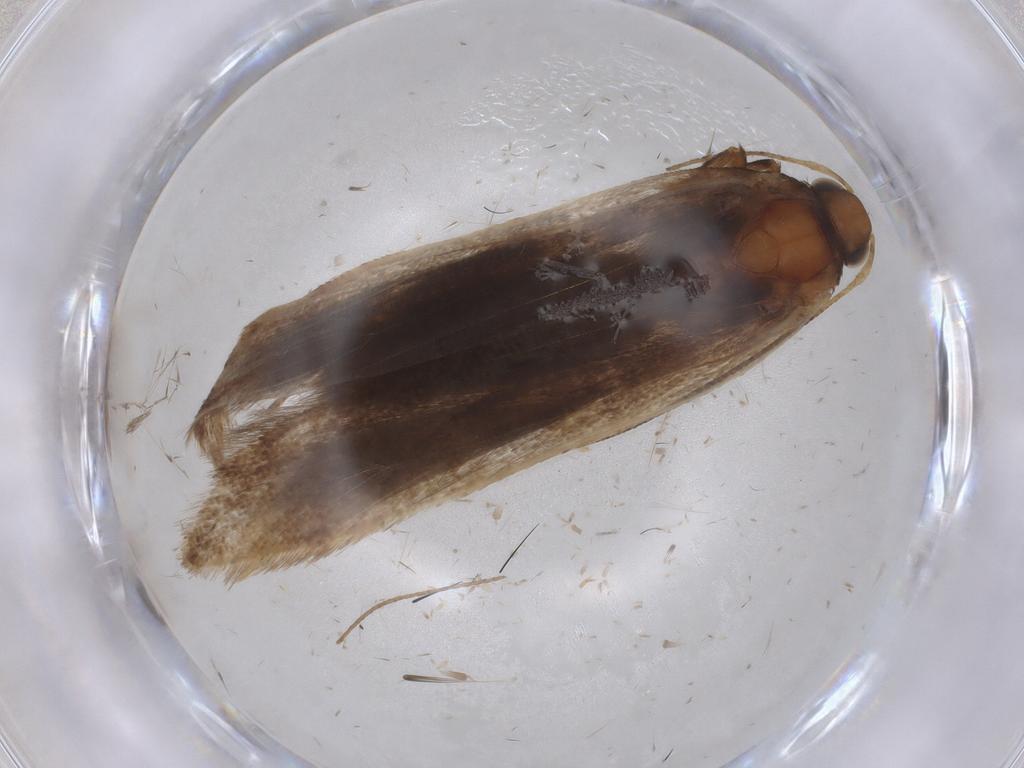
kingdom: Animalia
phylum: Arthropoda
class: Insecta
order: Lepidoptera
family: Gelechiidae
